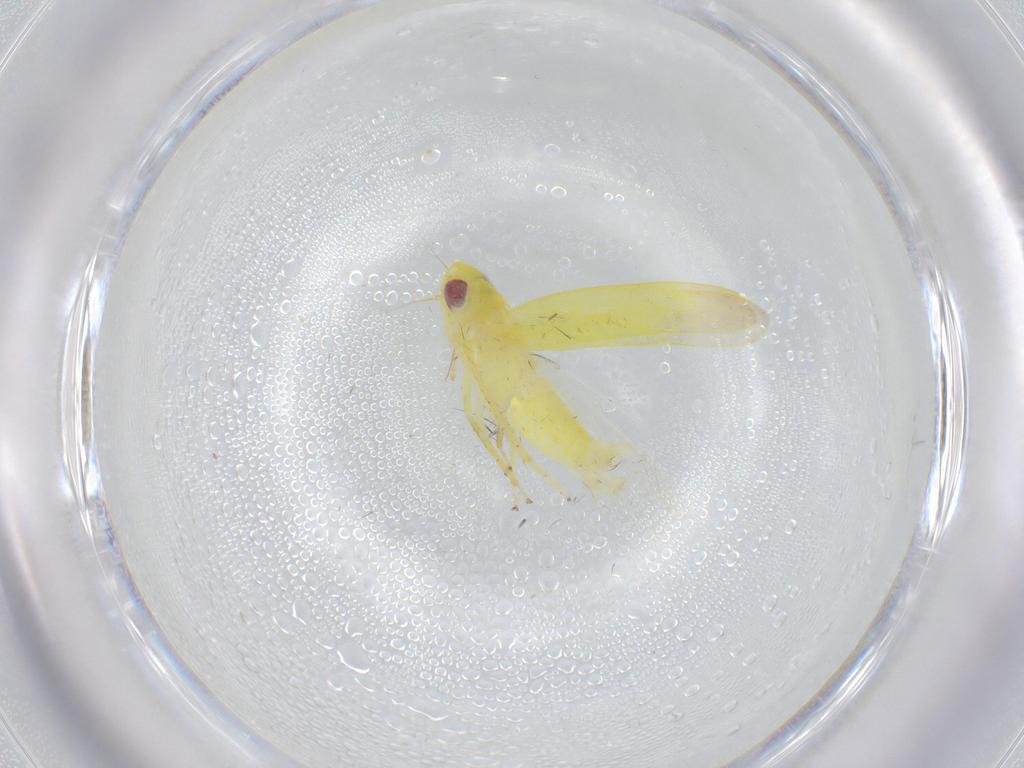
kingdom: Animalia
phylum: Arthropoda
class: Insecta
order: Hemiptera
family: Cicadellidae
